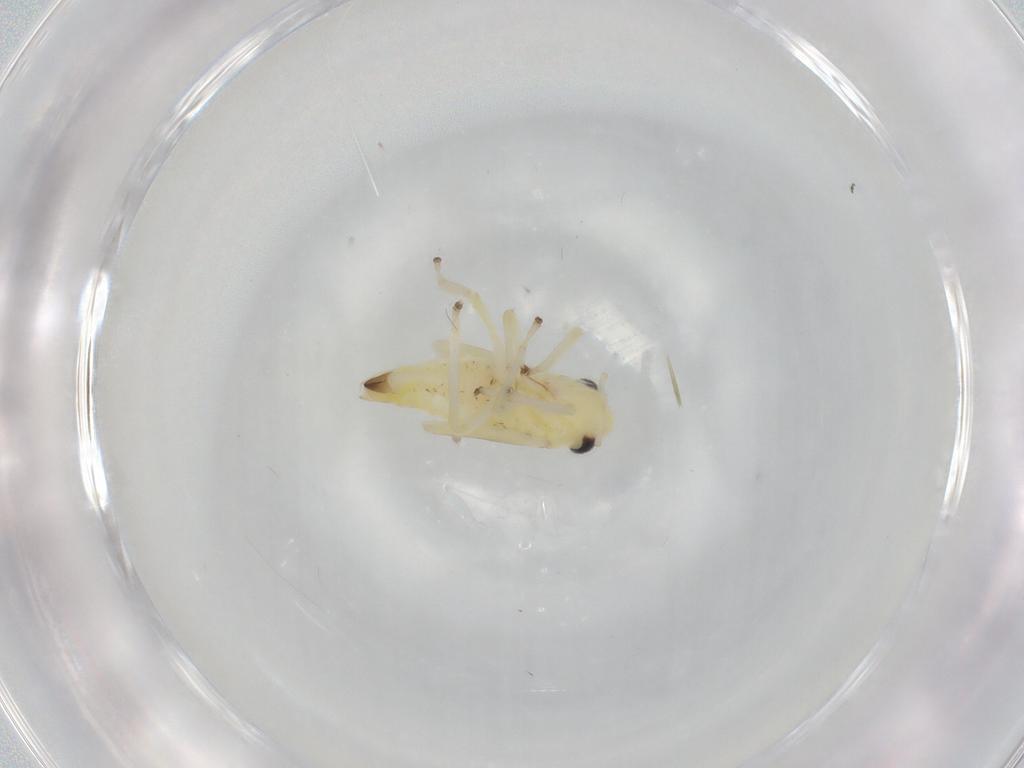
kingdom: Animalia
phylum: Arthropoda
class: Insecta
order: Hemiptera
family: Cicadellidae
